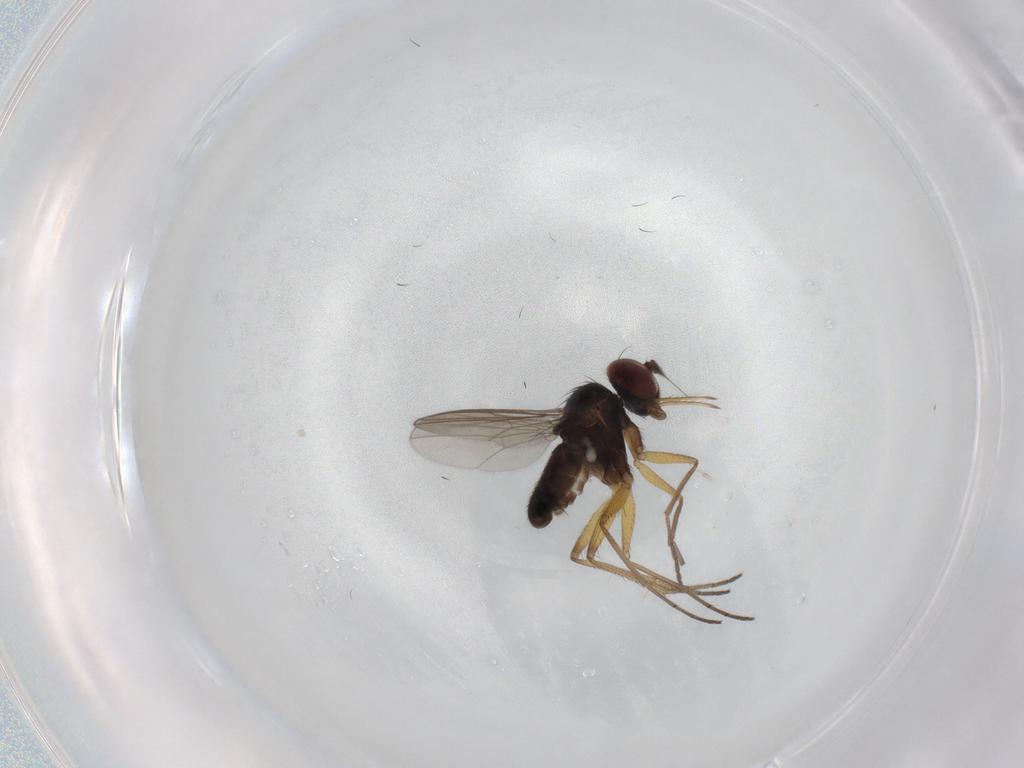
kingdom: Animalia
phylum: Arthropoda
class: Insecta
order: Diptera
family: Dolichopodidae
